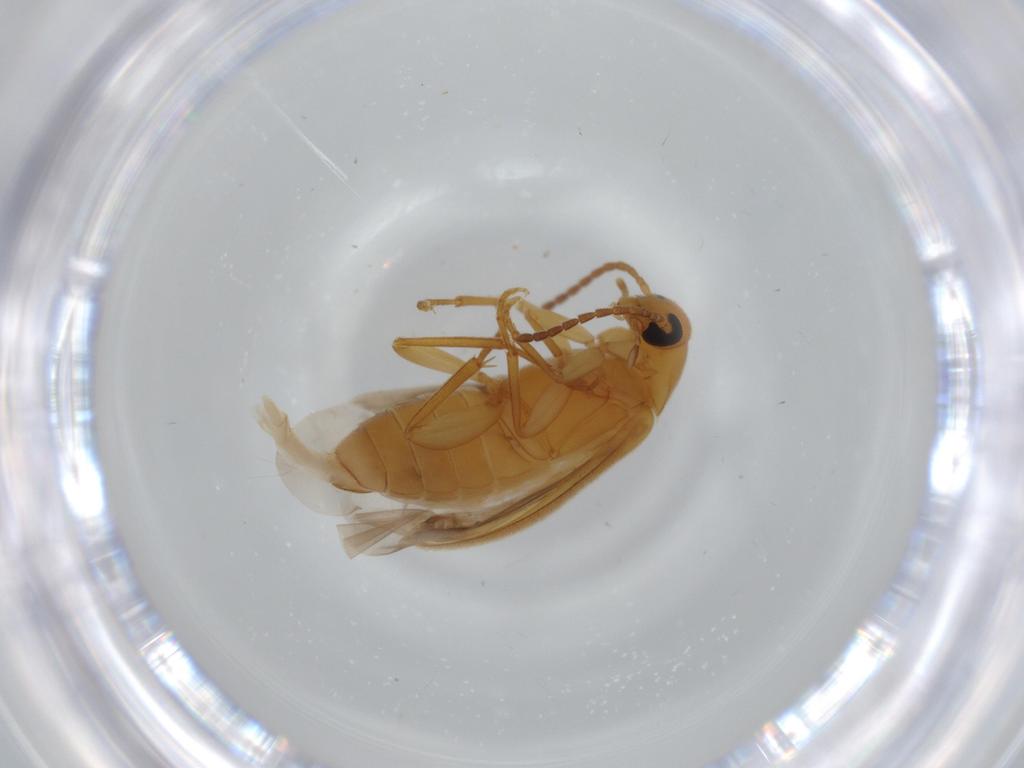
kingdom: Animalia
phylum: Arthropoda
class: Insecta
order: Coleoptera
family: Scraptiidae
